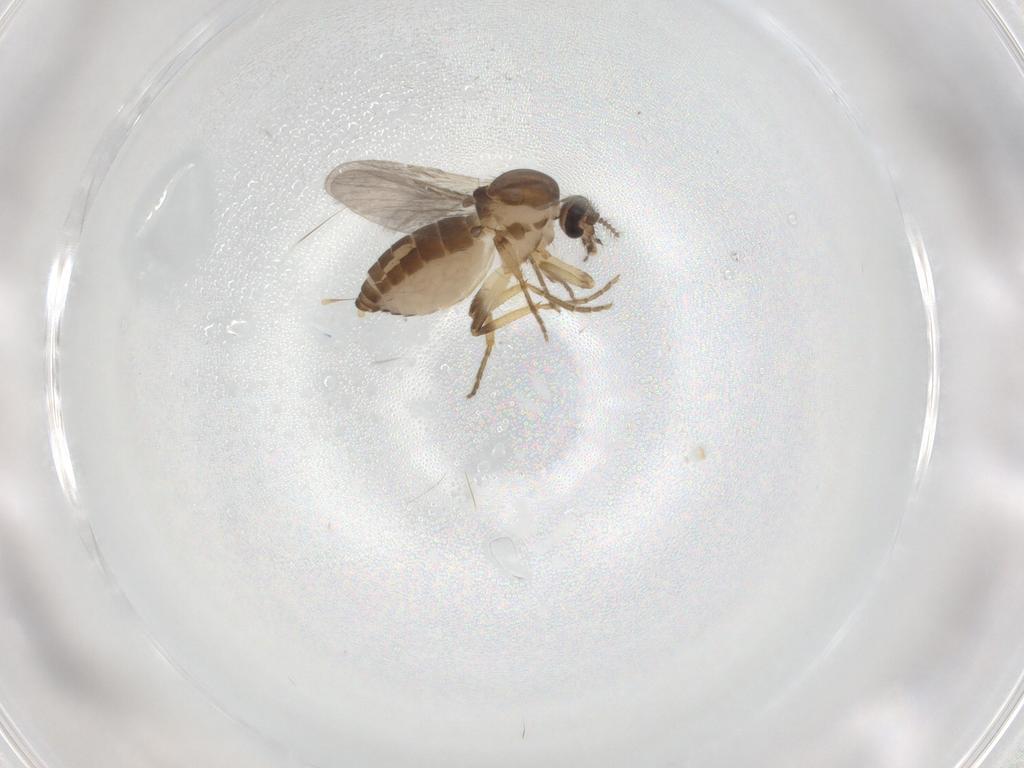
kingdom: Animalia
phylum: Arthropoda
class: Insecta
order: Diptera
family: Ceratopogonidae
